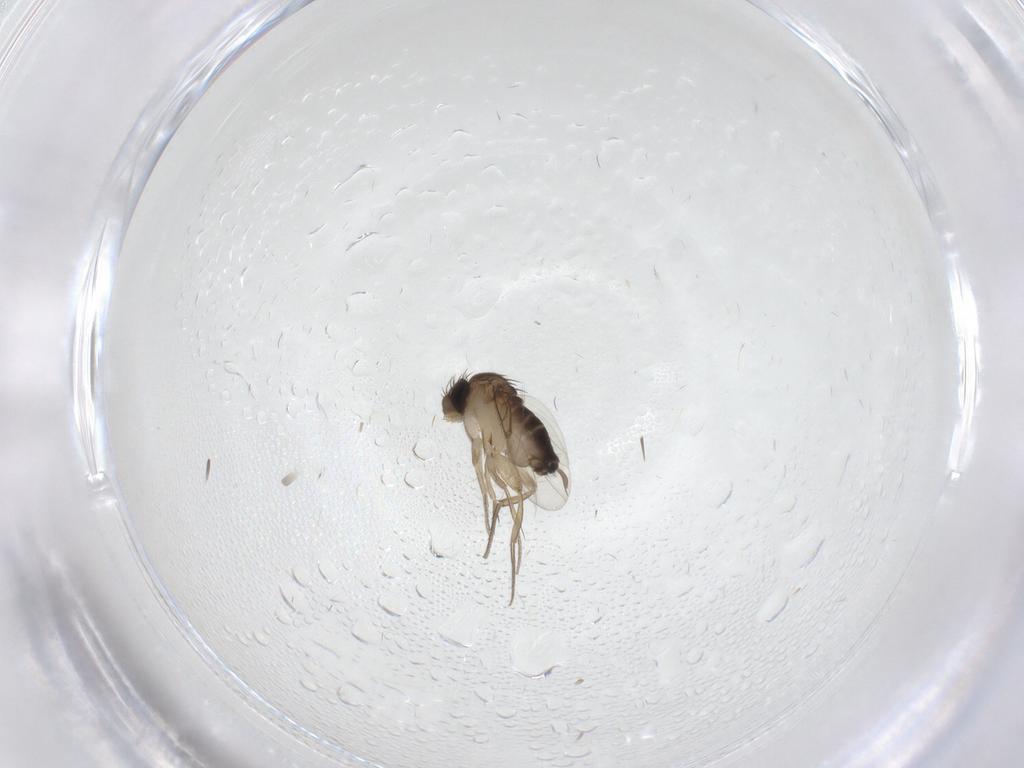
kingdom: Animalia
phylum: Arthropoda
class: Insecta
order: Diptera
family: Phoridae
